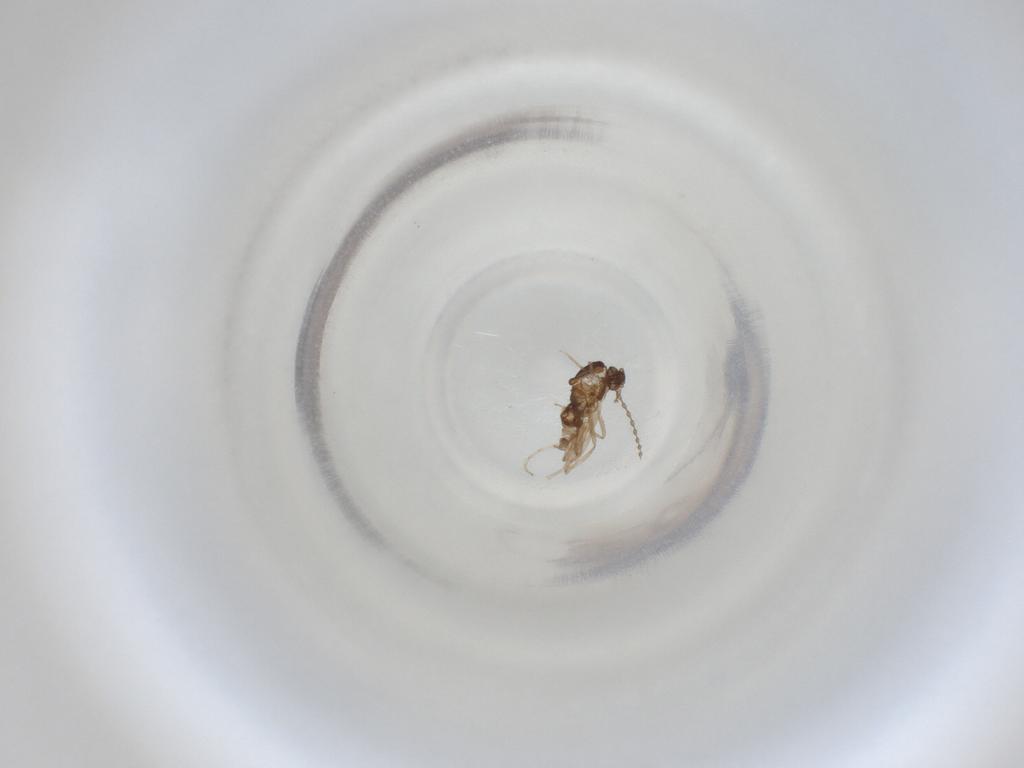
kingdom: Animalia
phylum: Arthropoda
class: Insecta
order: Diptera
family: Cecidomyiidae
